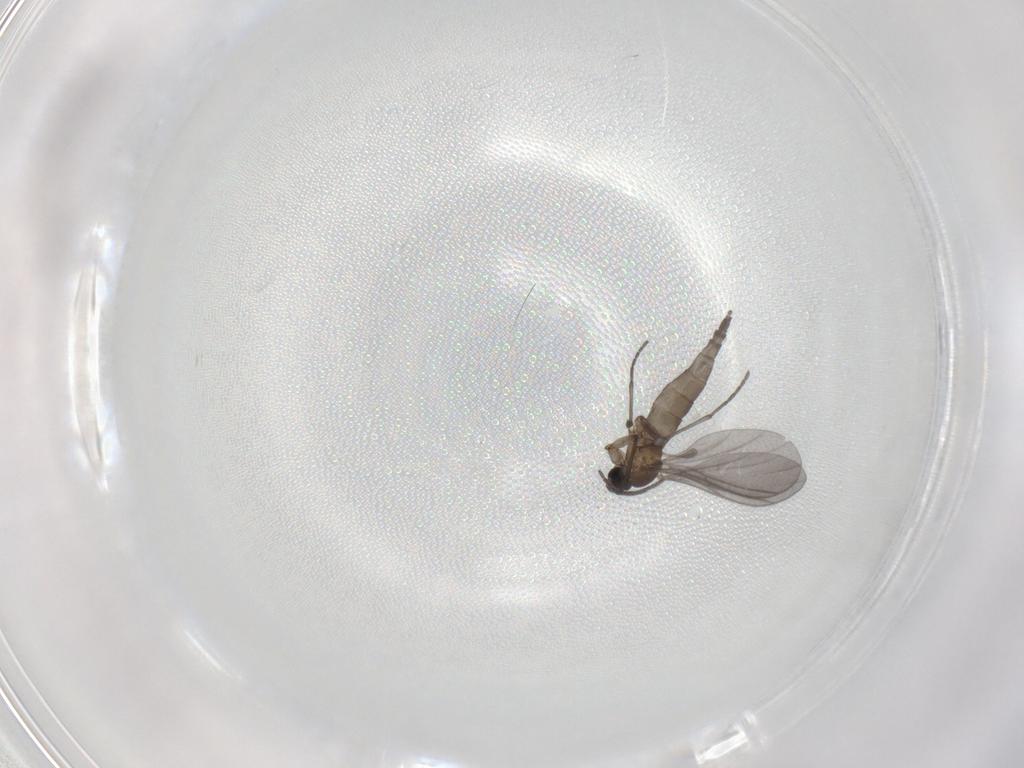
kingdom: Animalia
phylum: Arthropoda
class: Insecta
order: Diptera
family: Sciaridae
